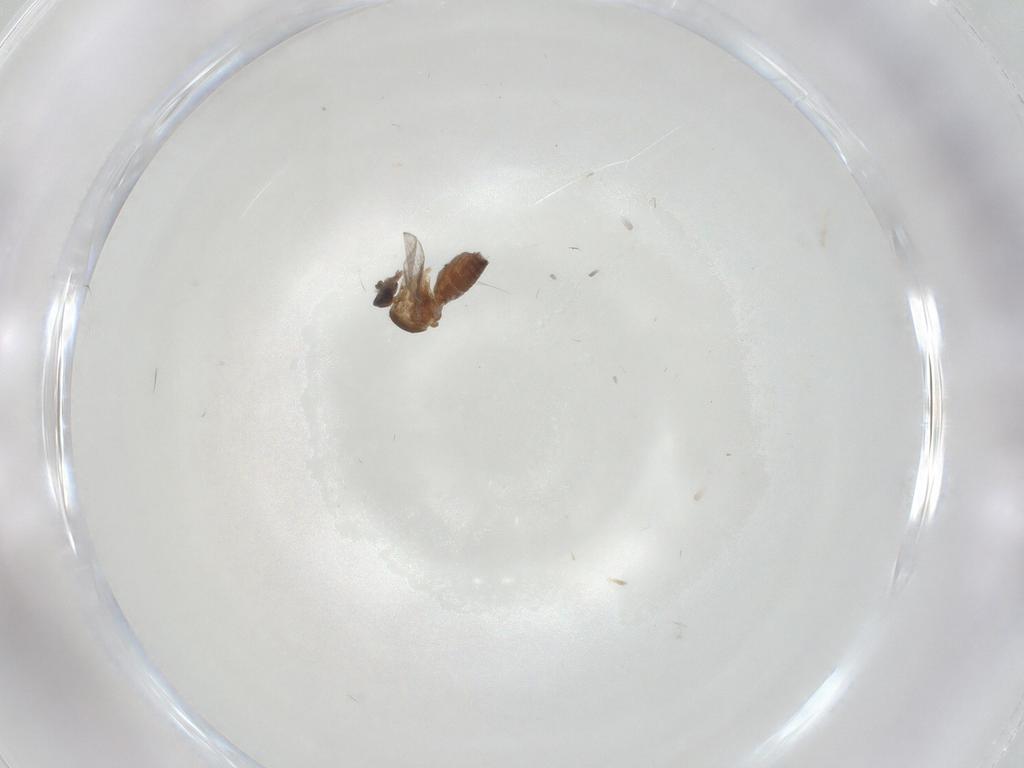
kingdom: Animalia
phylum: Arthropoda
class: Insecta
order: Diptera
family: Ceratopogonidae
